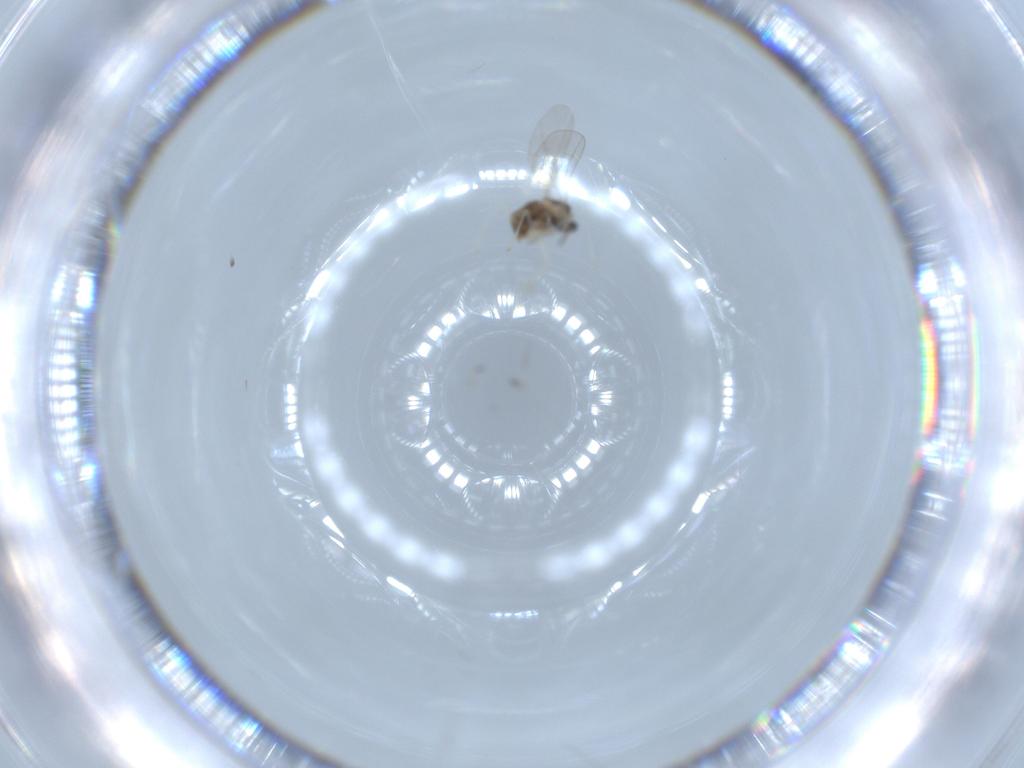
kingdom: Animalia
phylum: Arthropoda
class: Insecta
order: Diptera
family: Cecidomyiidae
